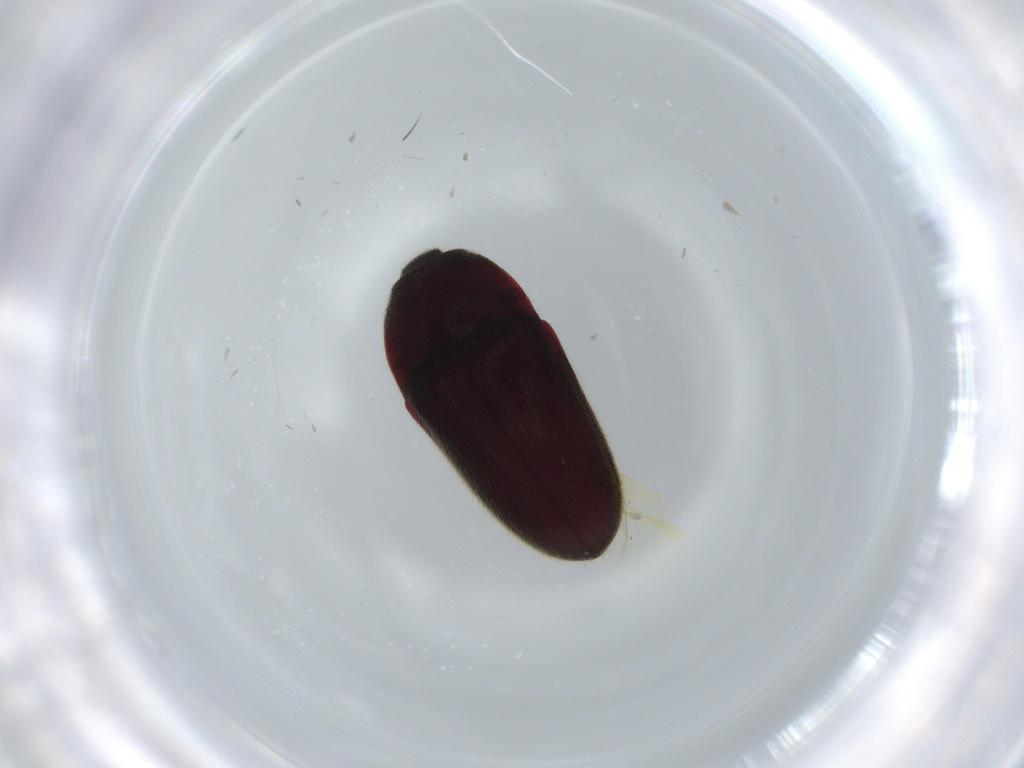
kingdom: Animalia
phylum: Arthropoda
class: Insecta
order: Coleoptera
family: Throscidae
